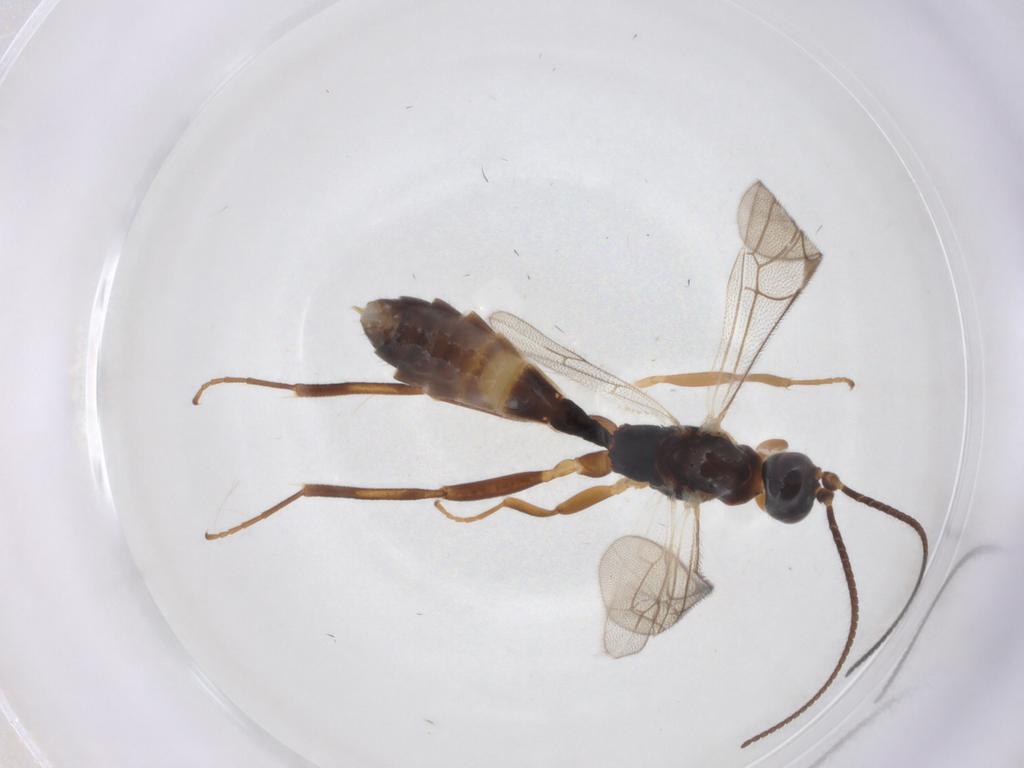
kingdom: Animalia
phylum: Arthropoda
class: Insecta
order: Hymenoptera
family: Ichneumonidae
